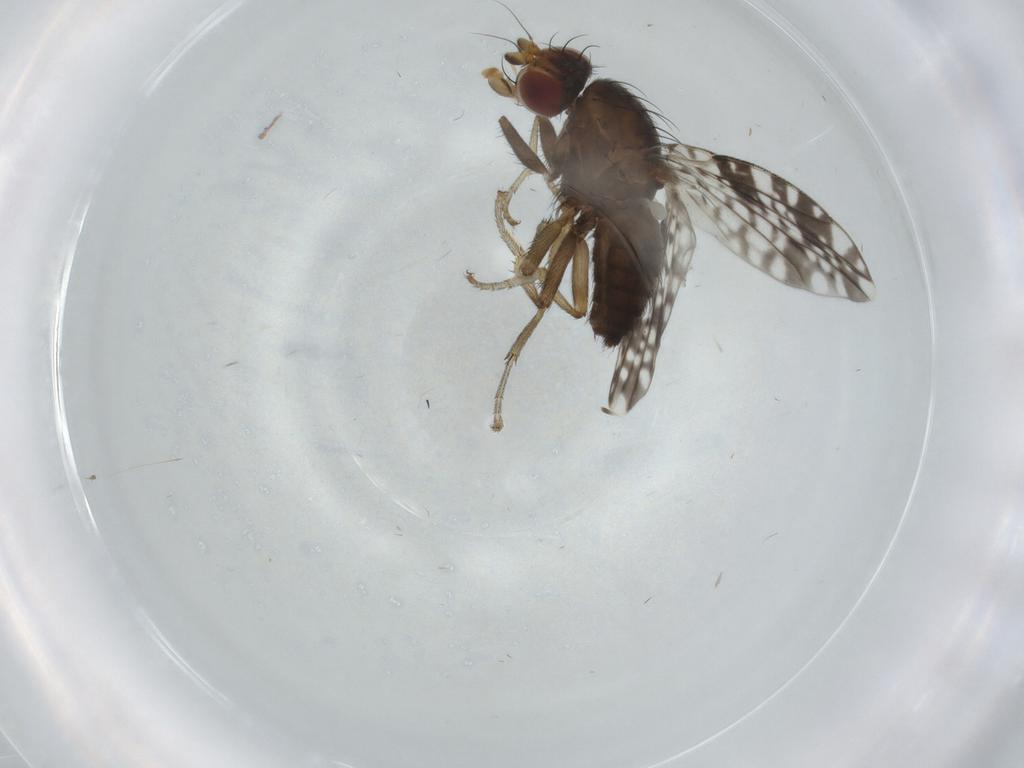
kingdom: Animalia
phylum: Arthropoda
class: Insecta
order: Diptera
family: Tephritidae
